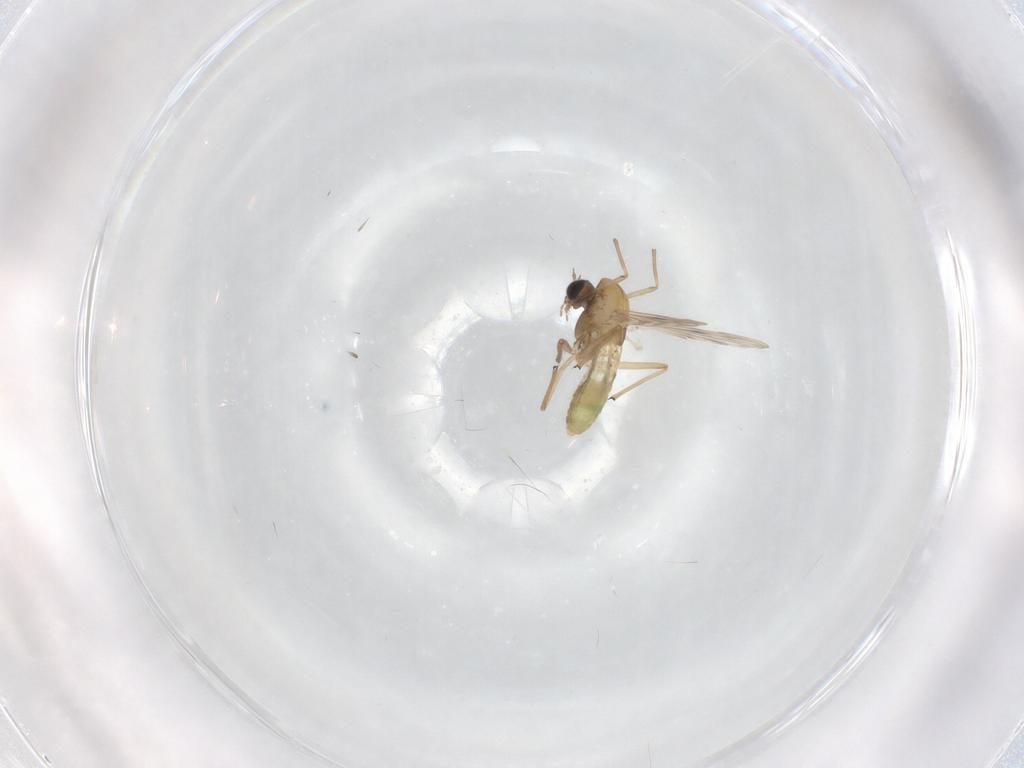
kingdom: Animalia
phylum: Arthropoda
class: Insecta
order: Diptera
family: Chironomidae
